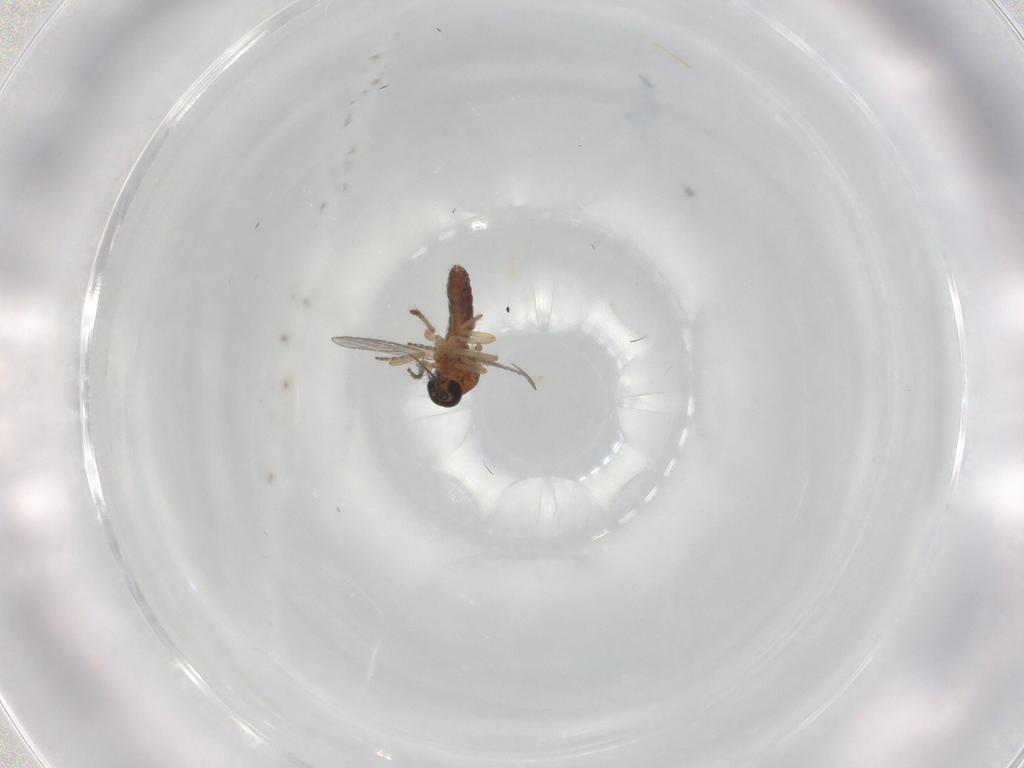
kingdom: Animalia
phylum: Arthropoda
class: Insecta
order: Diptera
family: Ceratopogonidae
